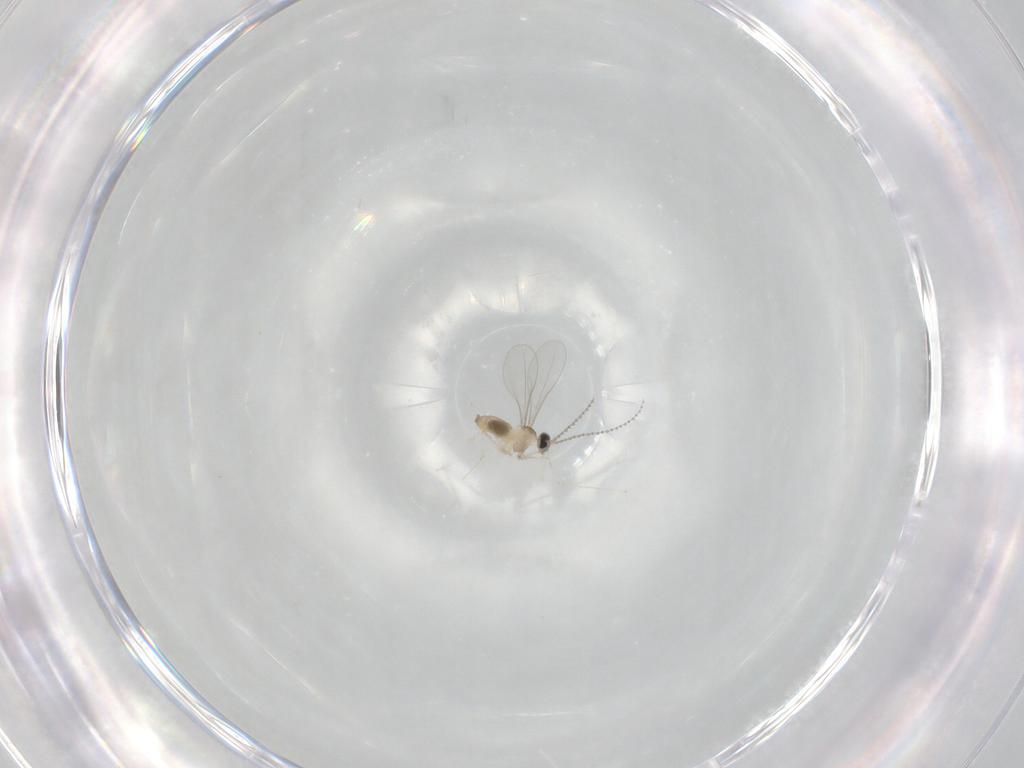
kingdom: Animalia
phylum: Arthropoda
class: Insecta
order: Diptera
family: Cecidomyiidae
